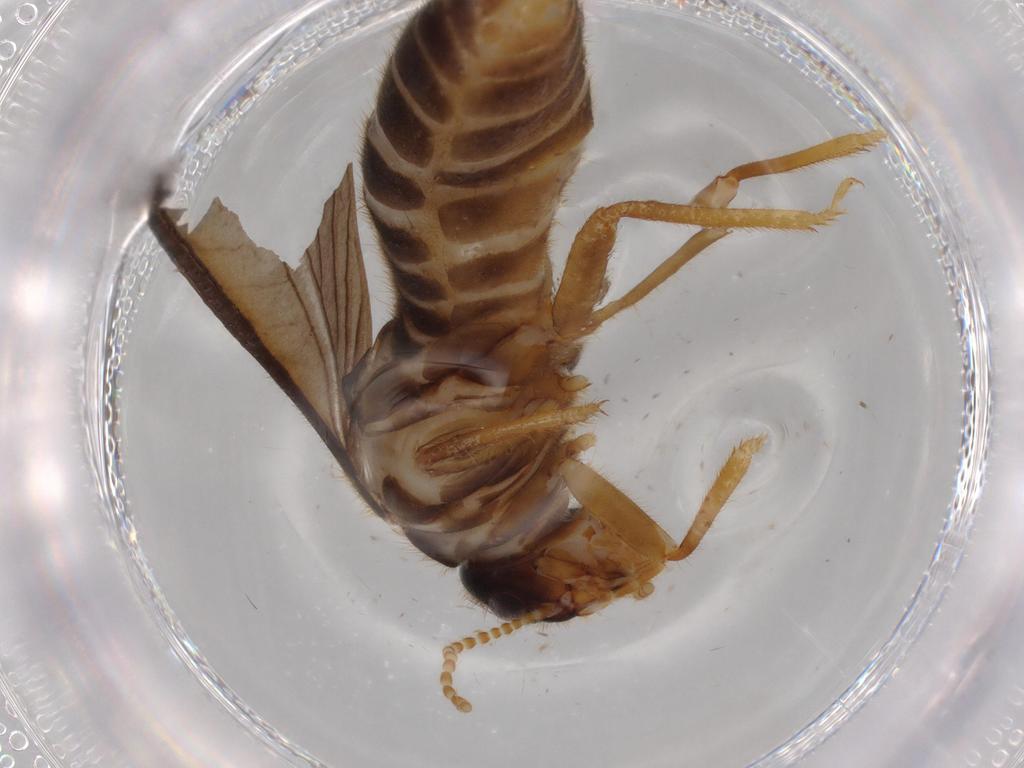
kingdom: Animalia
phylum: Arthropoda
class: Insecta
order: Blattodea
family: Termitidae
